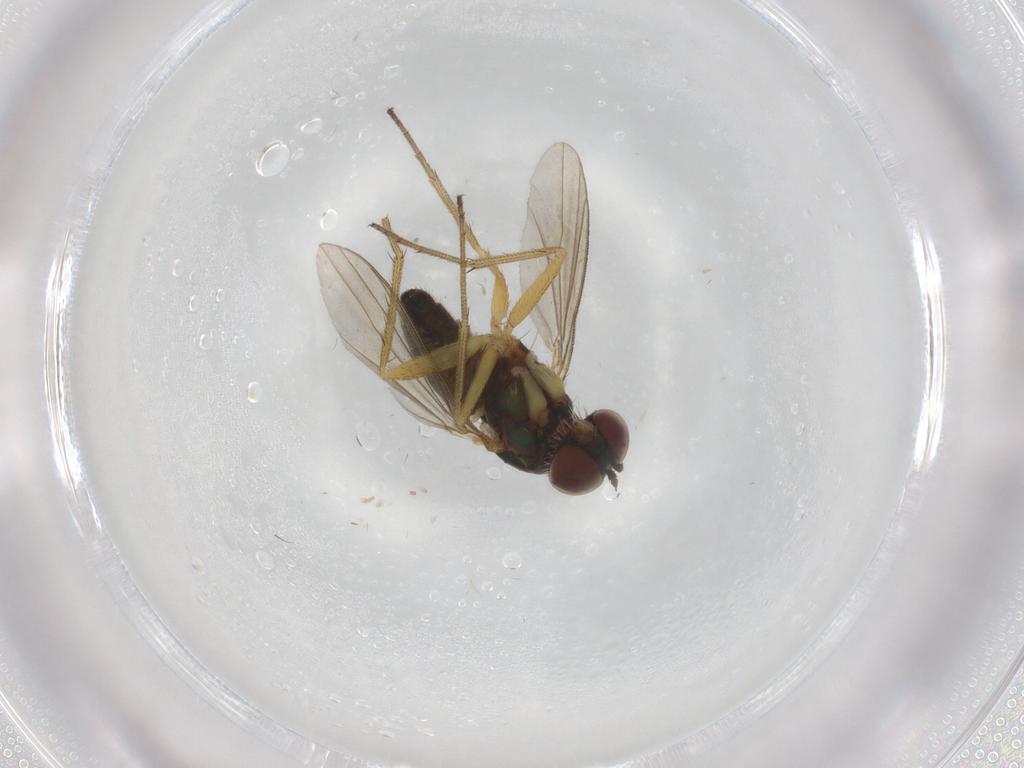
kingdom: Animalia
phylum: Arthropoda
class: Insecta
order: Diptera
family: Dolichopodidae
